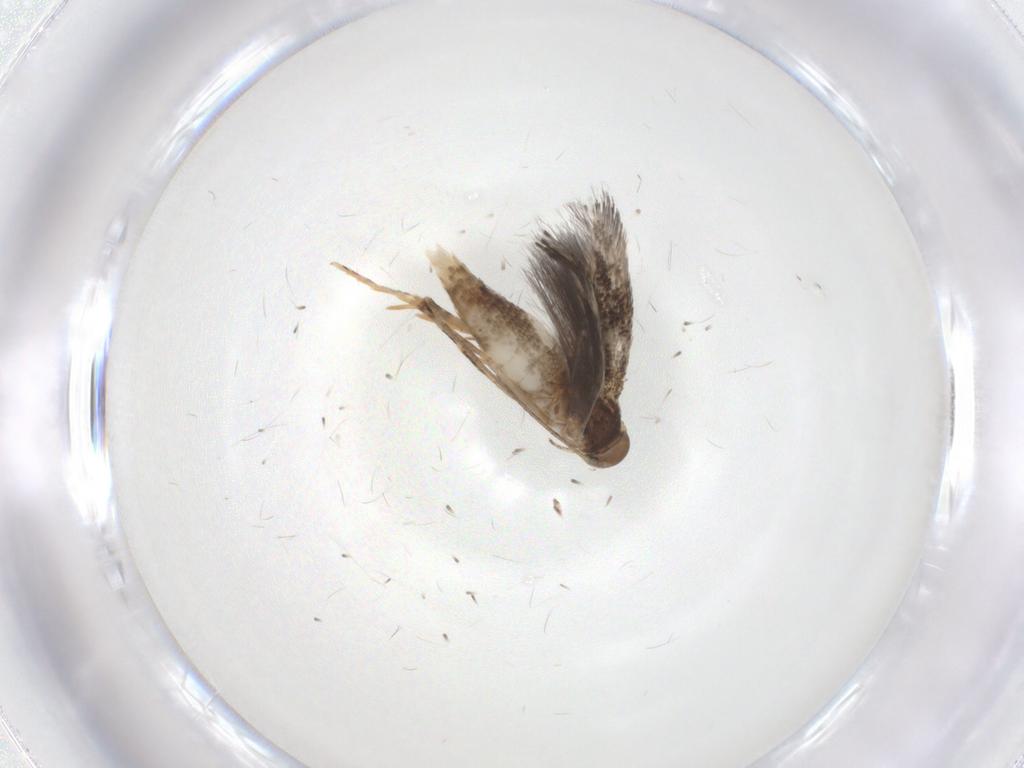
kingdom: Animalia
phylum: Arthropoda
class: Insecta
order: Lepidoptera
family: Elachistidae
